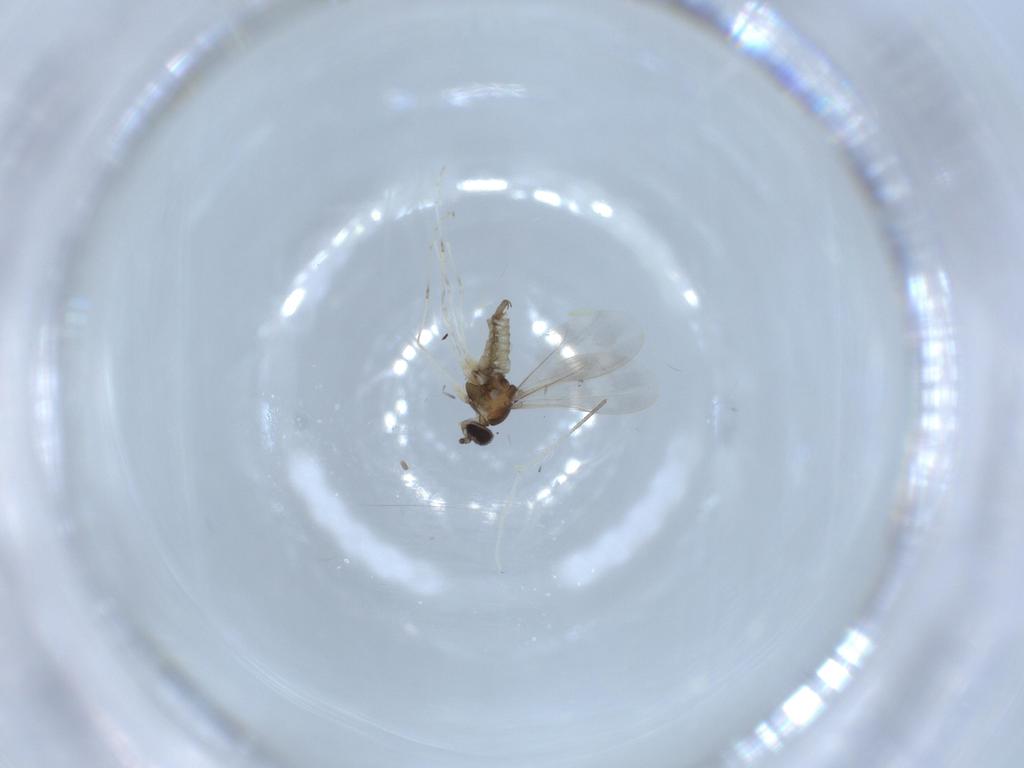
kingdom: Animalia
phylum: Arthropoda
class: Insecta
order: Diptera
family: Cecidomyiidae
